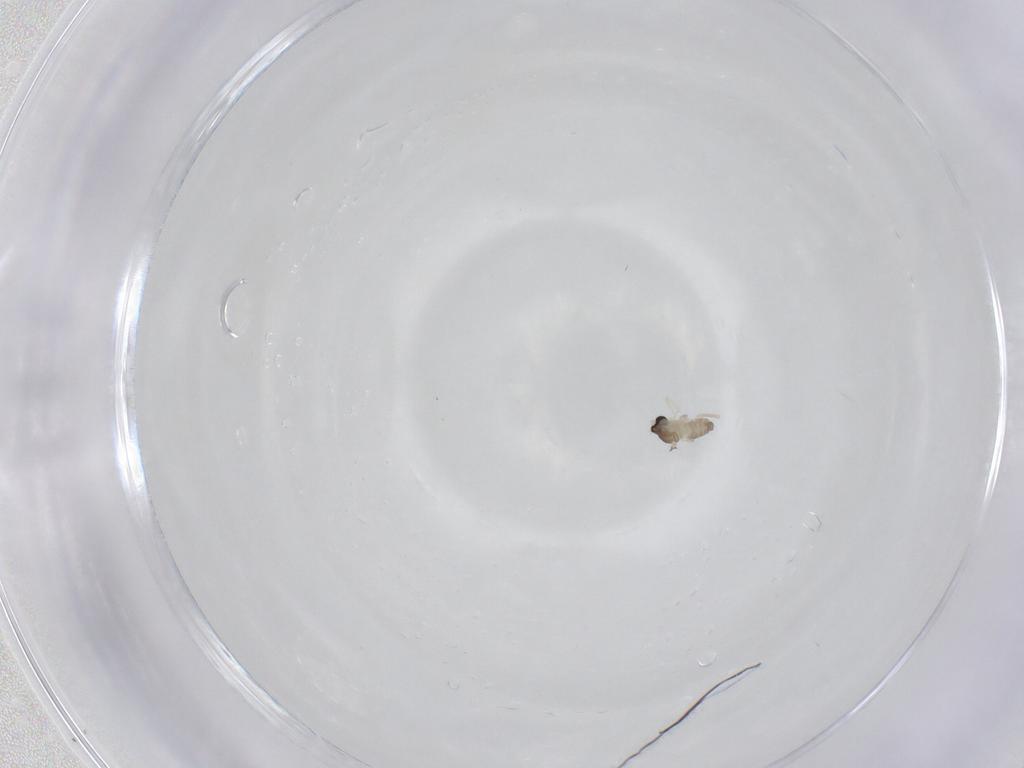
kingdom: Animalia
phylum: Arthropoda
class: Insecta
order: Diptera
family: Cecidomyiidae
